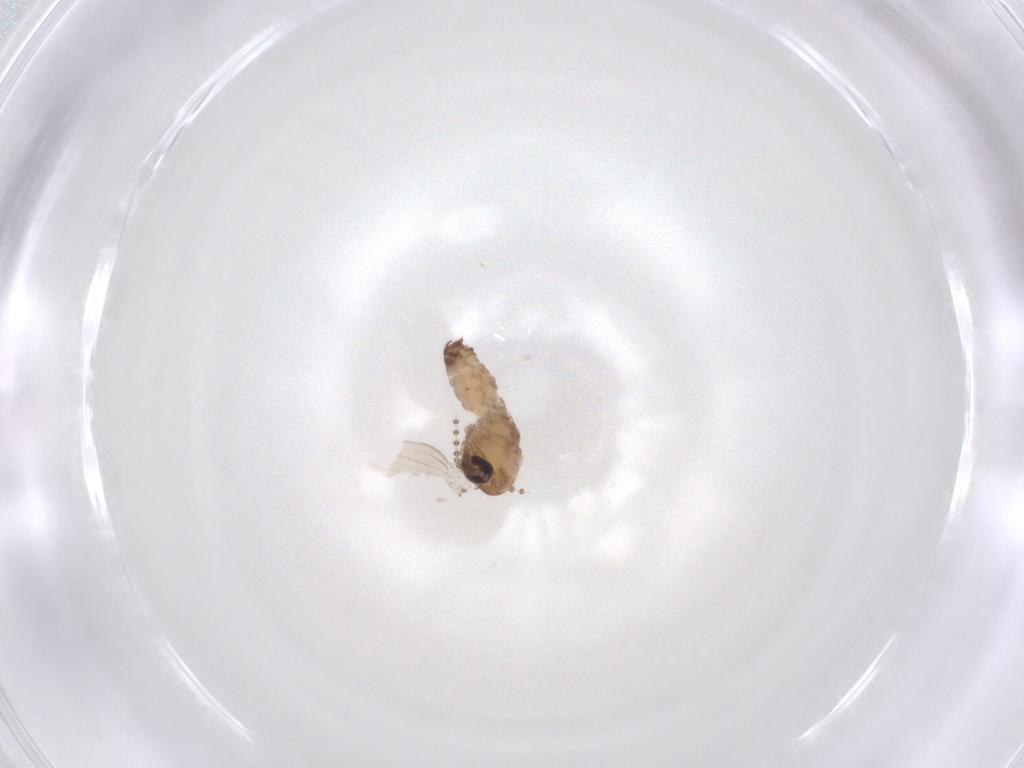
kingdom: Animalia
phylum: Arthropoda
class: Insecta
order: Diptera
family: Psychodidae
